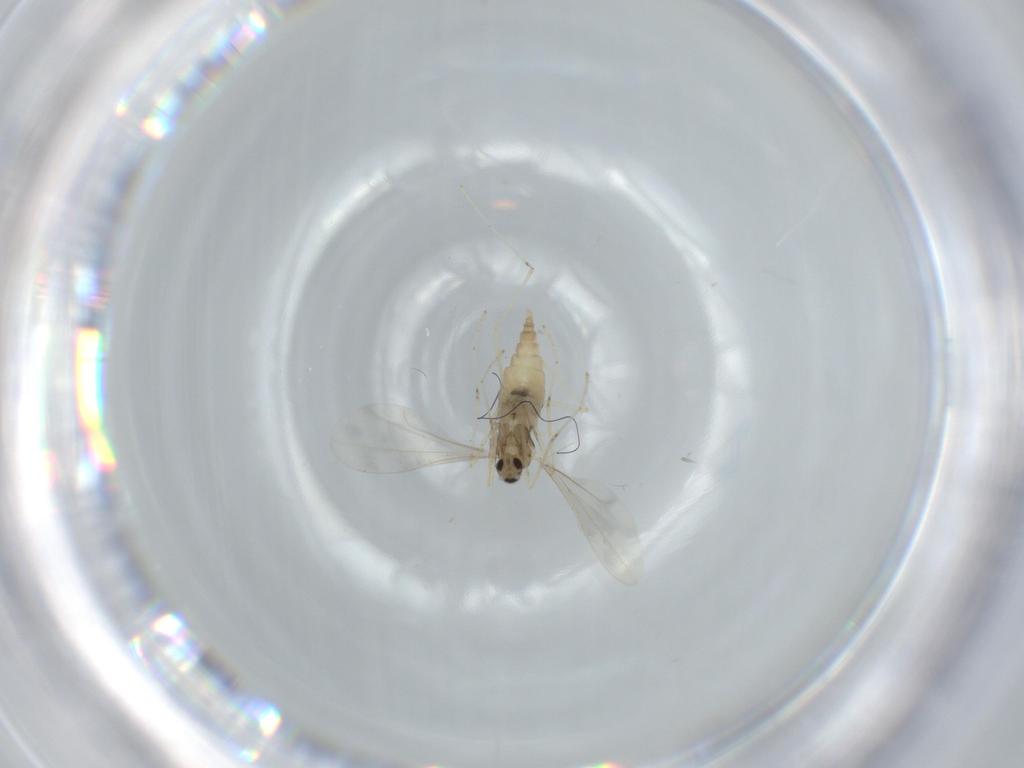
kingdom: Animalia
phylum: Arthropoda
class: Insecta
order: Diptera
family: Cecidomyiidae
